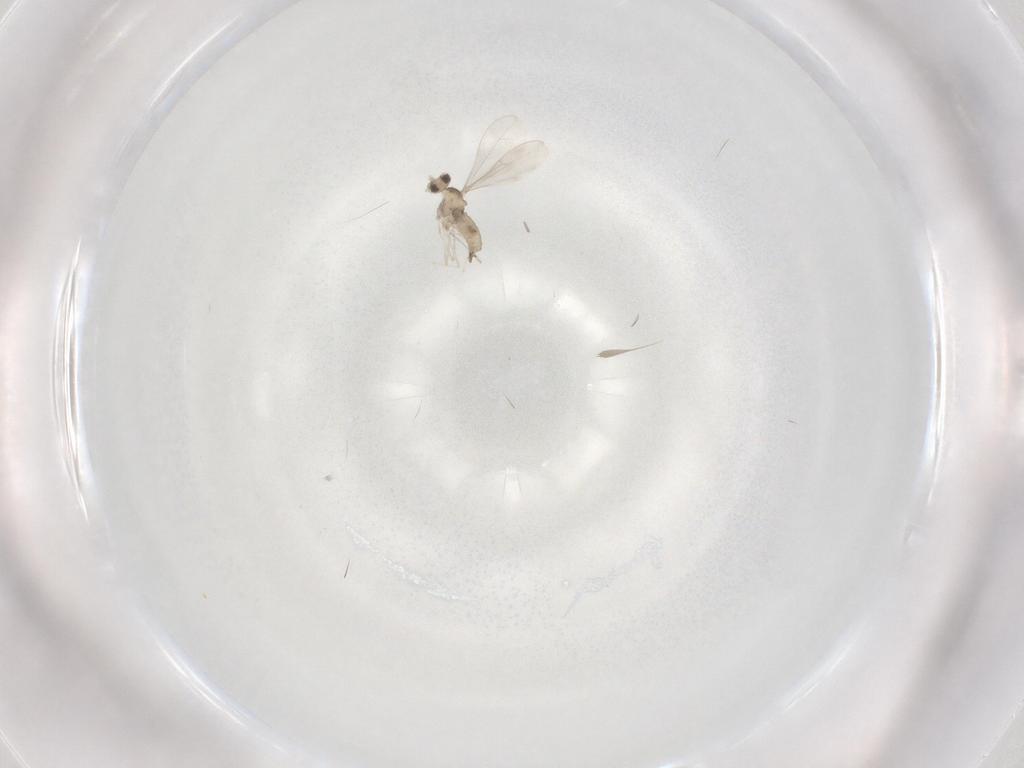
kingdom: Animalia
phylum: Arthropoda
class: Insecta
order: Diptera
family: Cecidomyiidae
